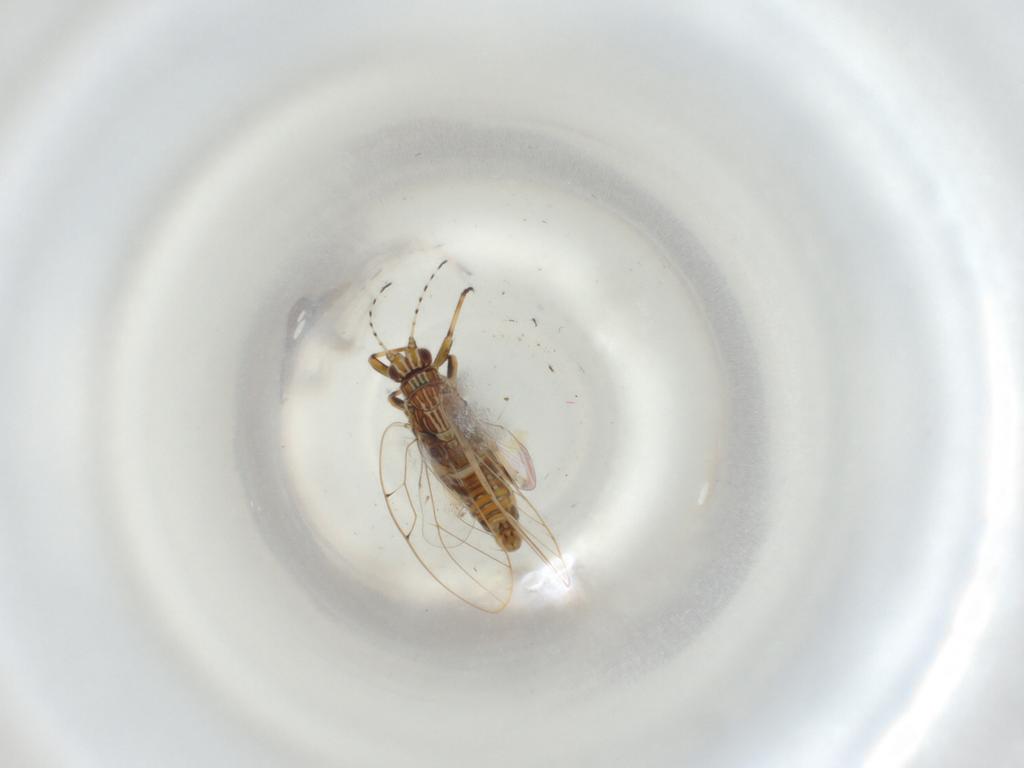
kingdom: Animalia
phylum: Arthropoda
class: Insecta
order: Lepidoptera
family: Erebidae
